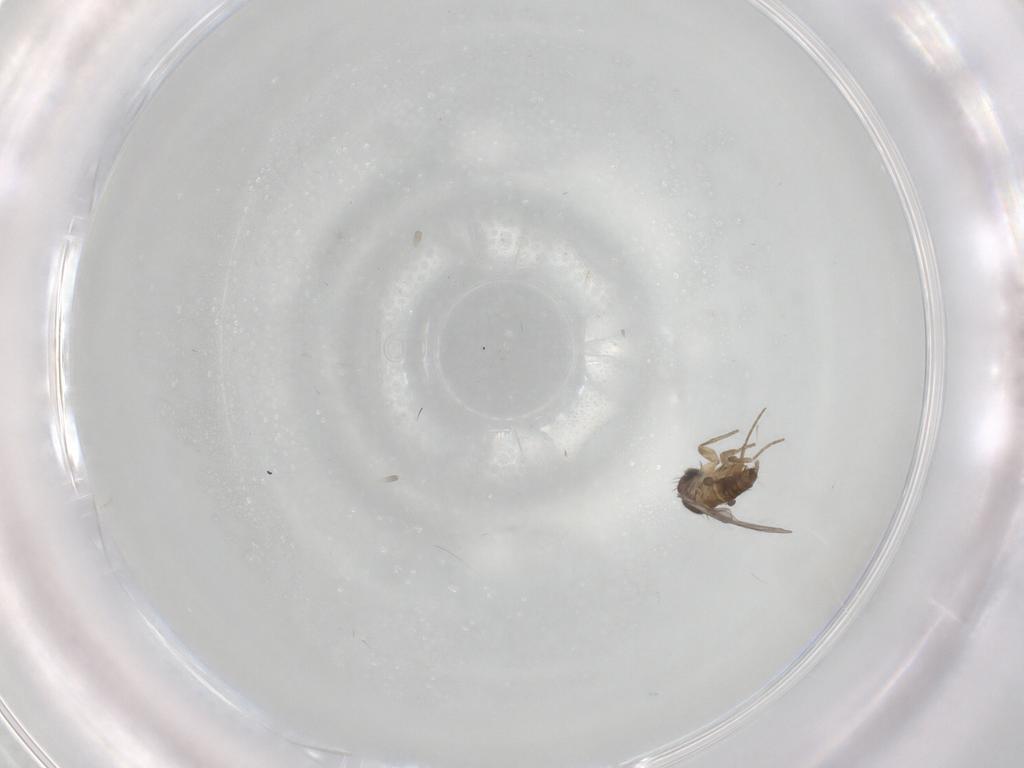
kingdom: Animalia
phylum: Arthropoda
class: Insecta
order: Diptera
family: Phoridae
